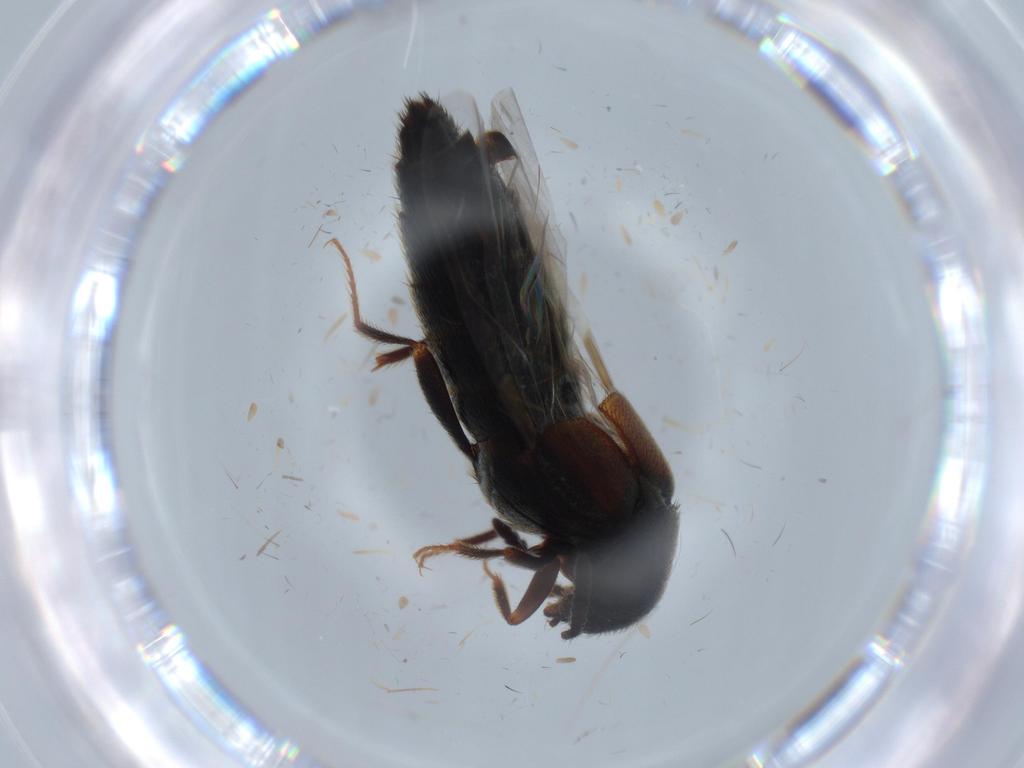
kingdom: Animalia
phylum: Arthropoda
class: Insecta
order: Coleoptera
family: Staphylinidae
